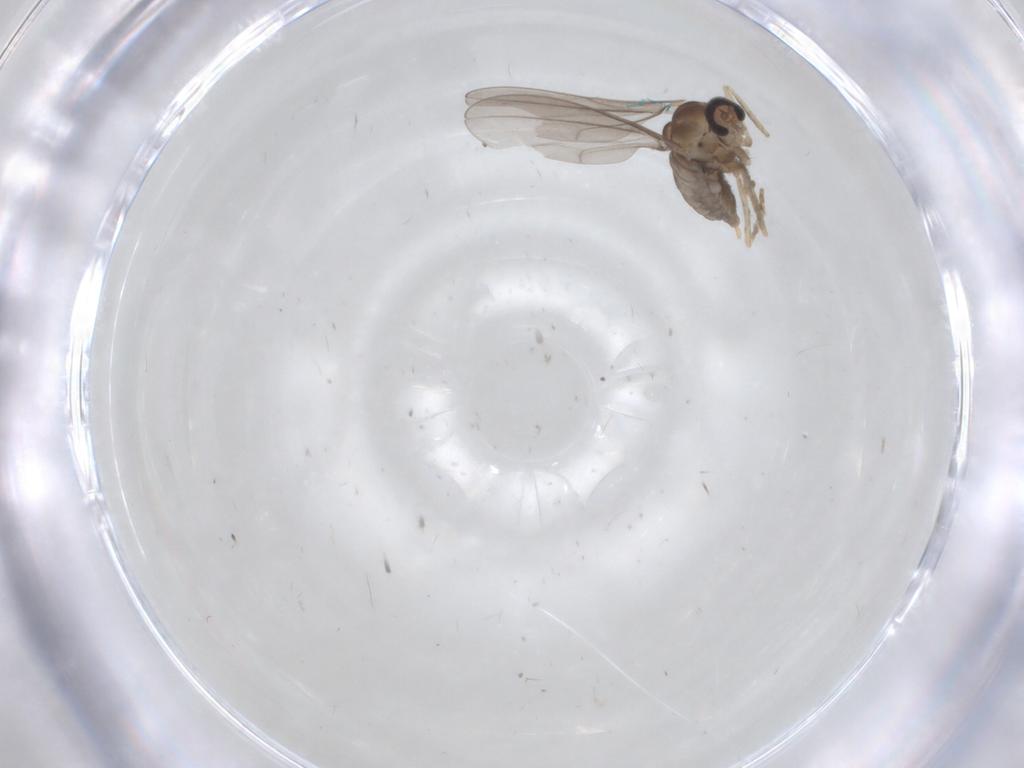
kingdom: Animalia
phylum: Arthropoda
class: Insecta
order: Diptera
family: Cecidomyiidae
